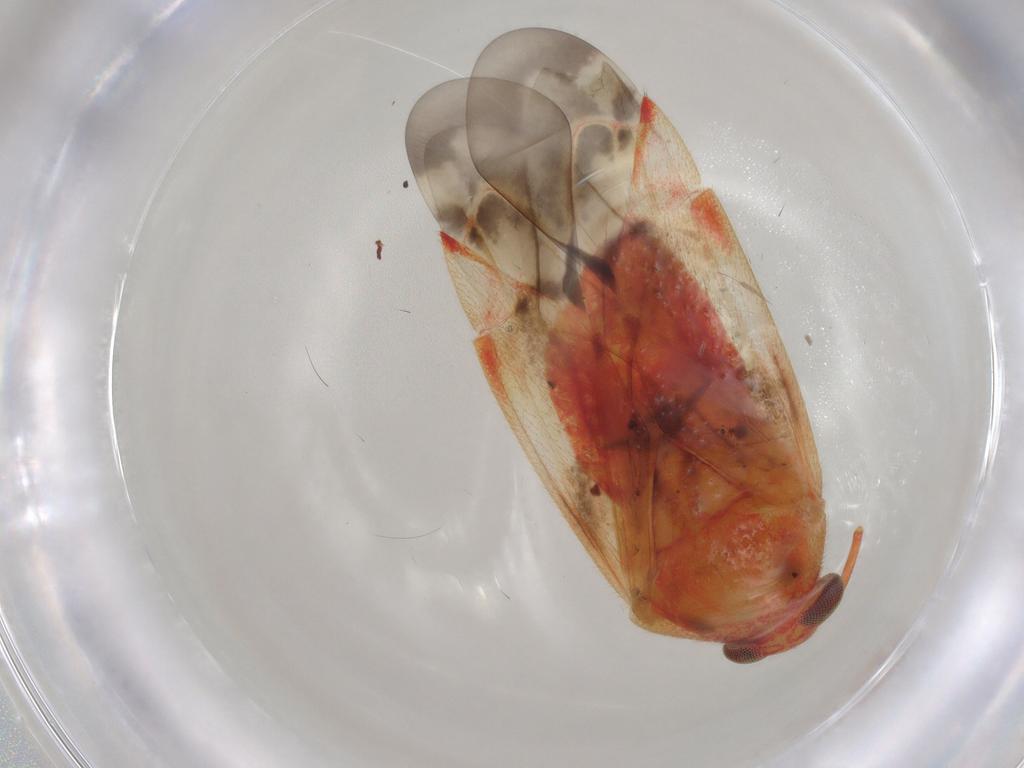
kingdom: Animalia
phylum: Arthropoda
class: Insecta
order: Hemiptera
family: Miridae
